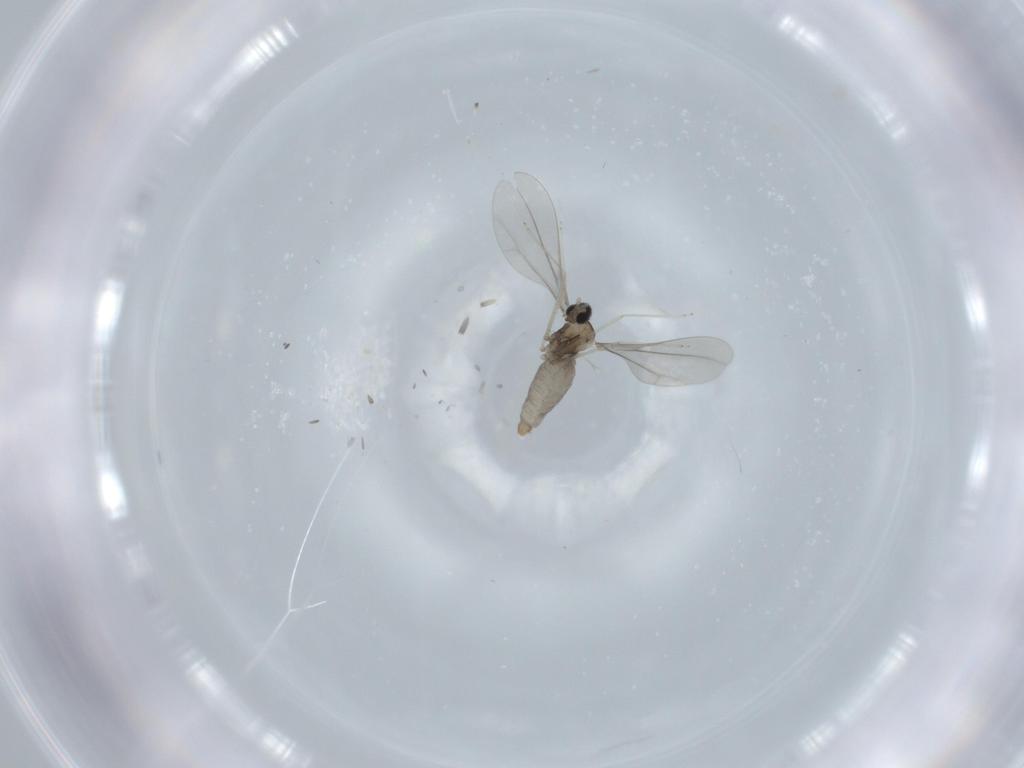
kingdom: Animalia
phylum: Arthropoda
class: Insecta
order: Diptera
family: Cecidomyiidae
